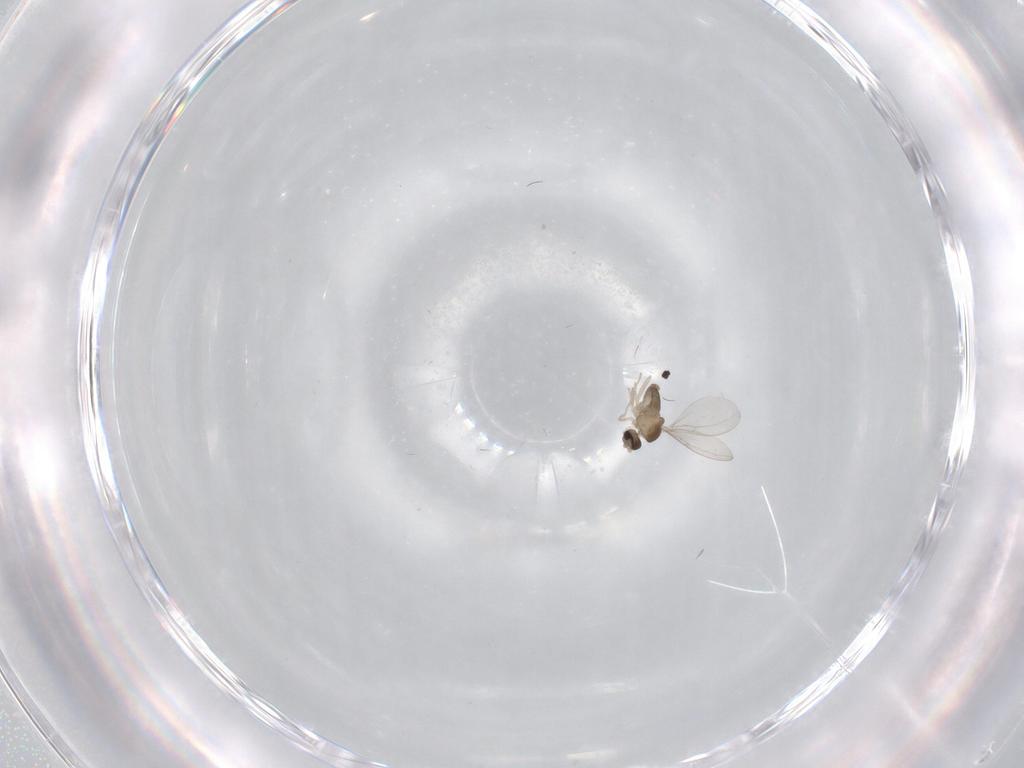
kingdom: Animalia
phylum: Arthropoda
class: Insecta
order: Diptera
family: Cecidomyiidae
